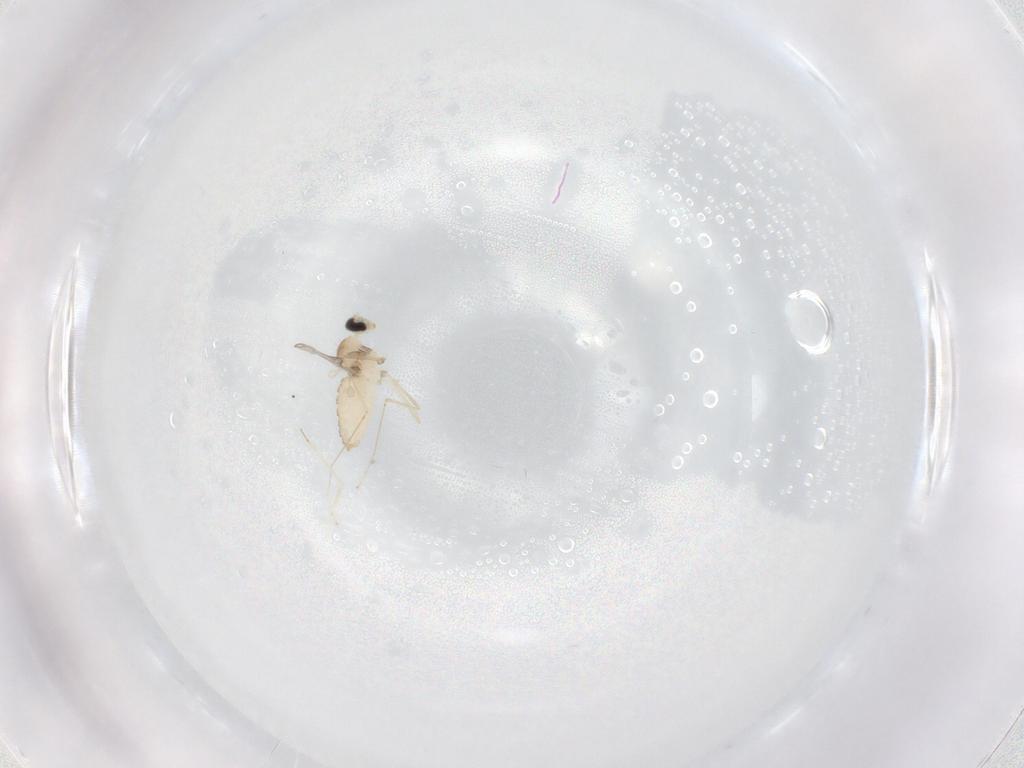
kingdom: Animalia
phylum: Arthropoda
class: Insecta
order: Diptera
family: Cecidomyiidae
